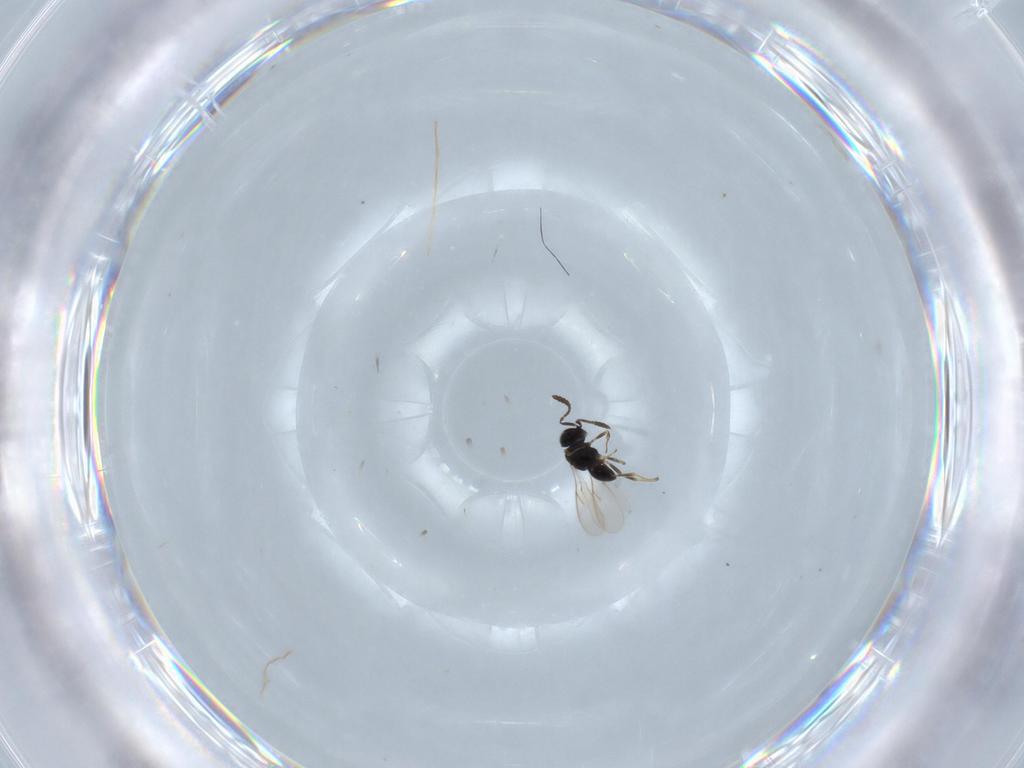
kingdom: Animalia
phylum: Arthropoda
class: Insecta
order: Hymenoptera
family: Scelionidae
